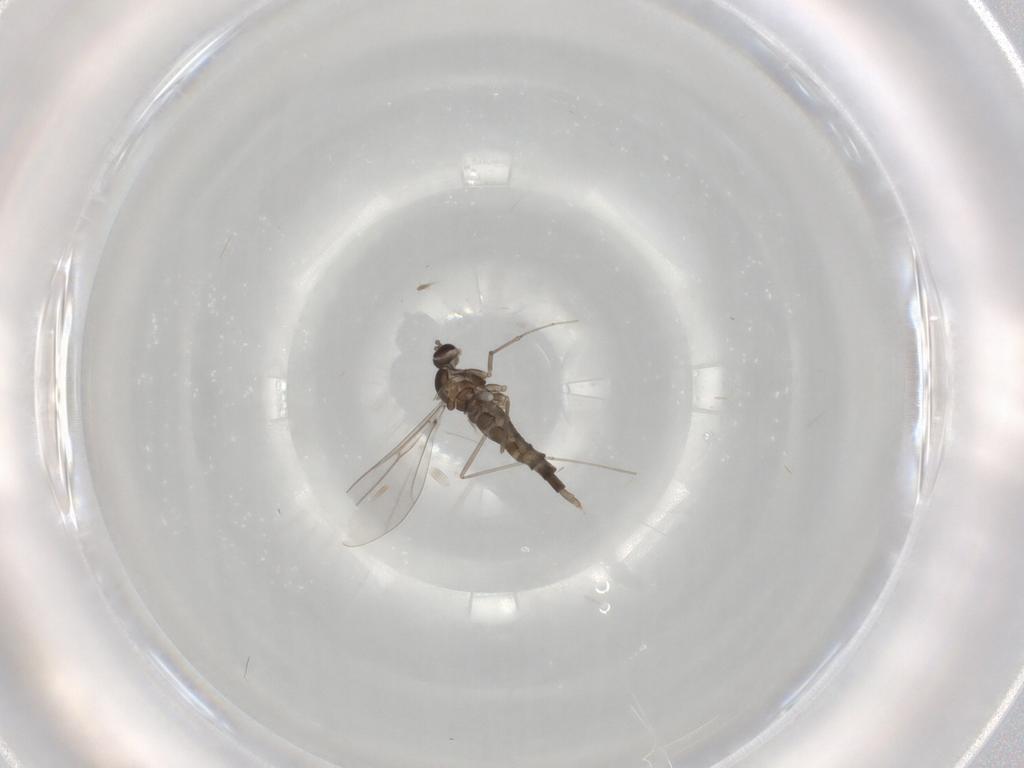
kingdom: Animalia
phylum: Arthropoda
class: Insecta
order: Diptera
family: Cecidomyiidae
